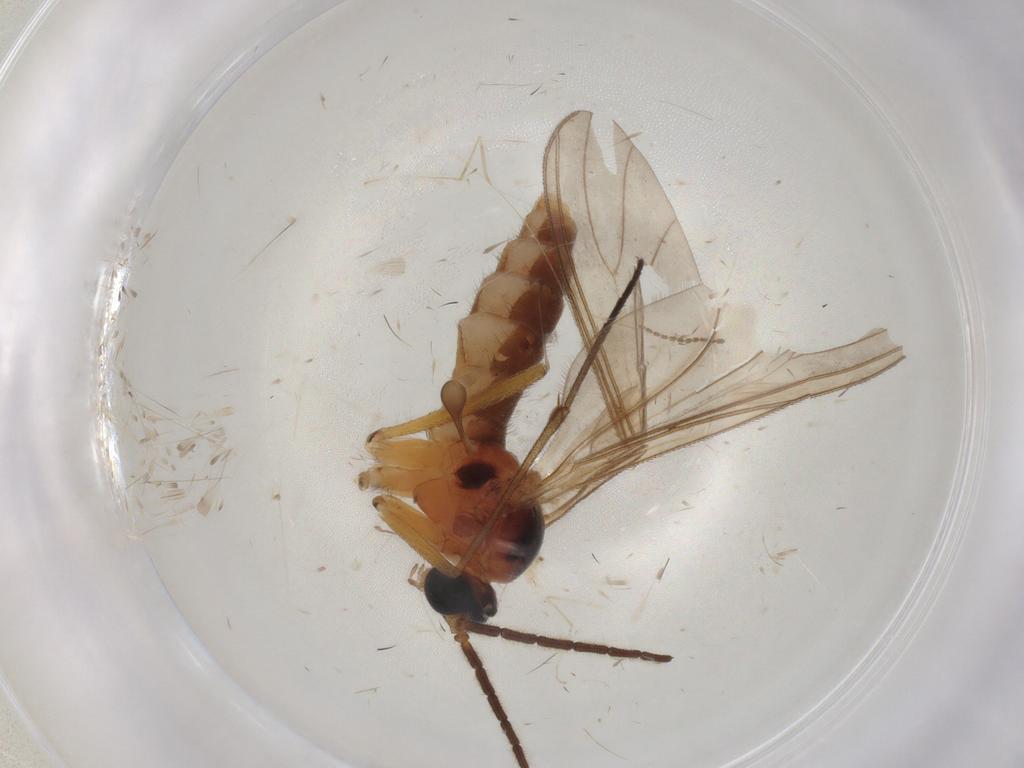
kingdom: Animalia
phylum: Arthropoda
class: Insecta
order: Diptera
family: Sciaridae
